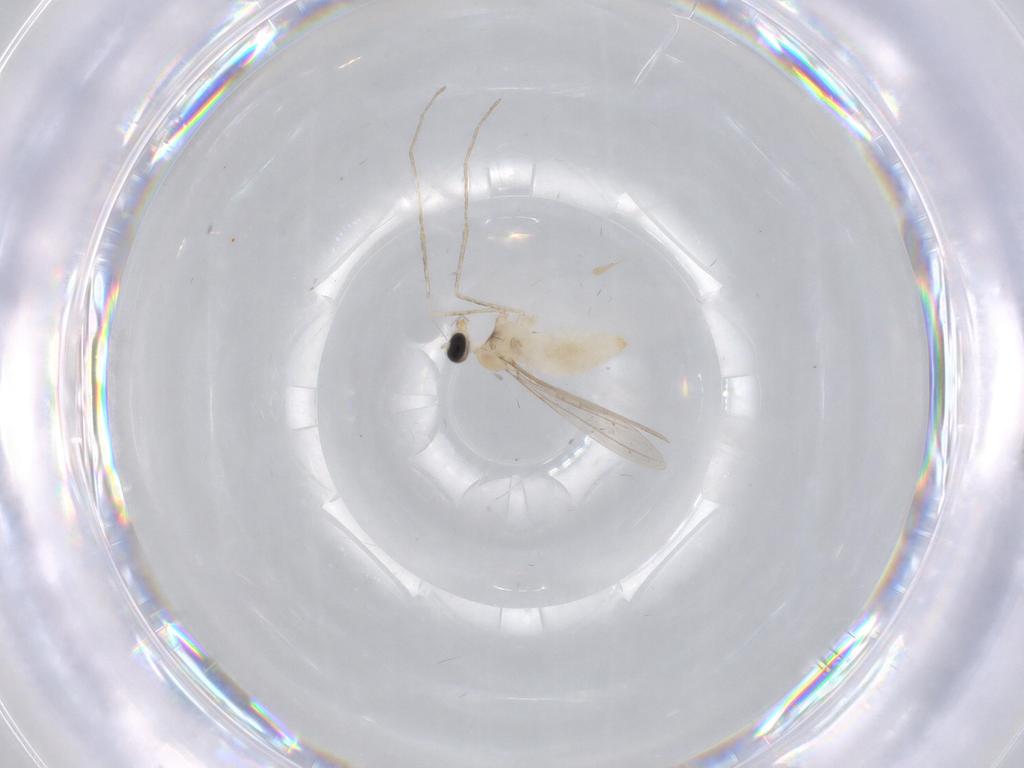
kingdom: Animalia
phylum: Arthropoda
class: Insecta
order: Diptera
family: Cecidomyiidae
